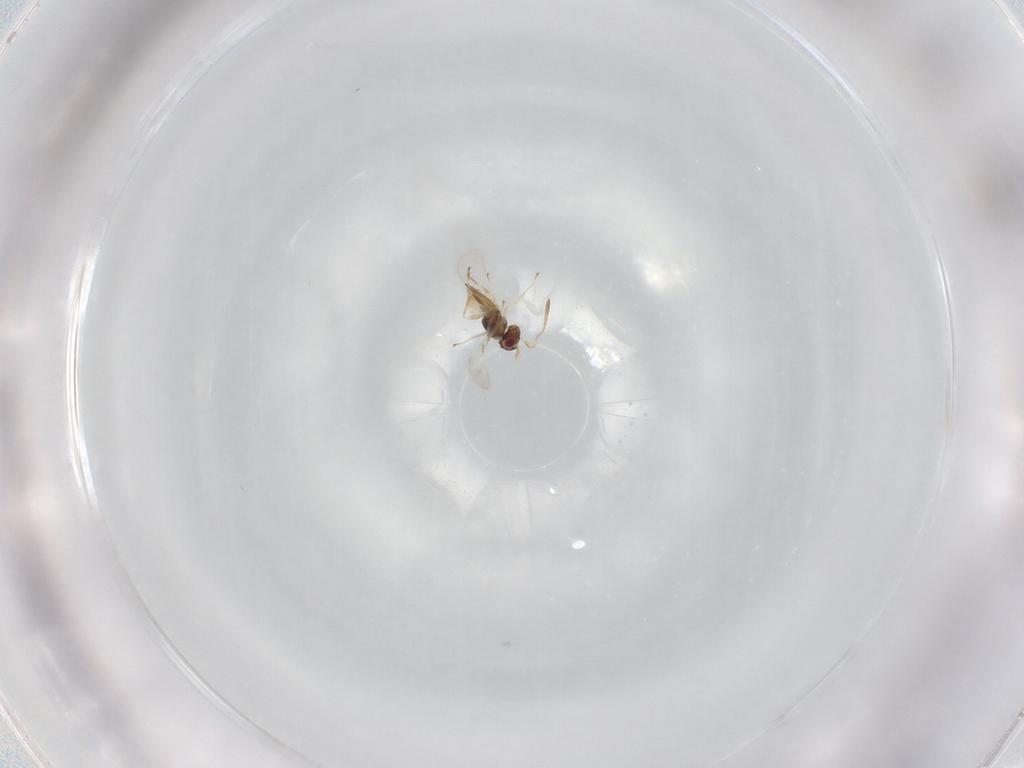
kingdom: Animalia
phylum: Arthropoda
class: Insecta
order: Hymenoptera
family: Mymaridae
